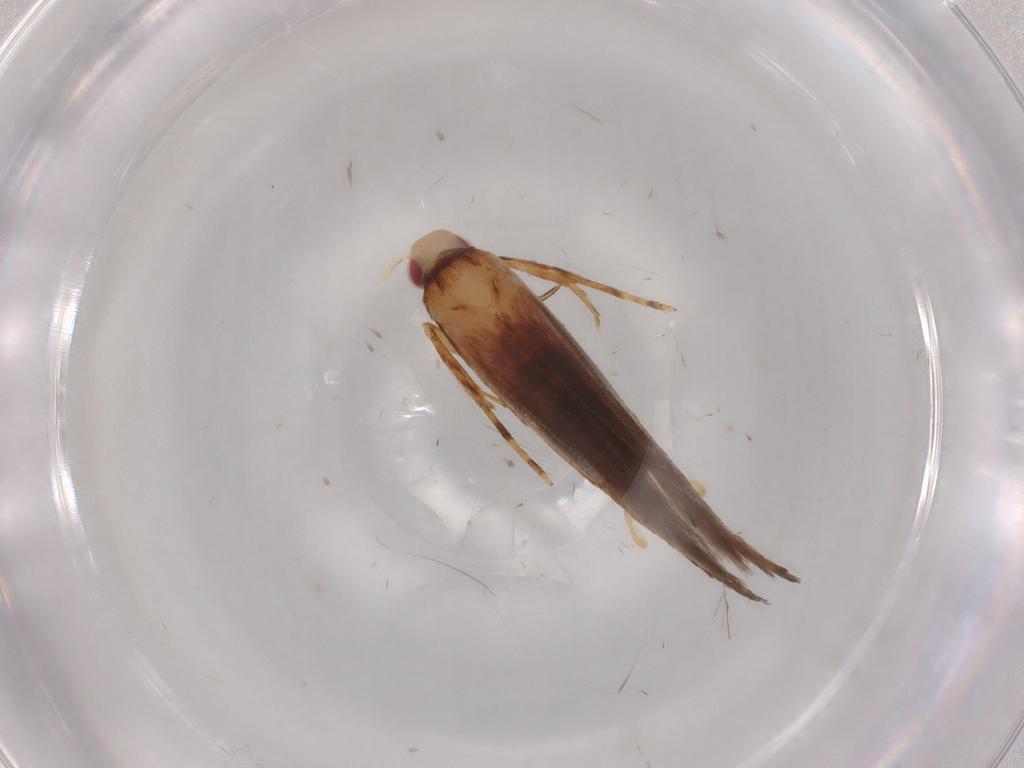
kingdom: Animalia
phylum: Arthropoda
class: Insecta
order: Lepidoptera
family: Cosmopterigidae
